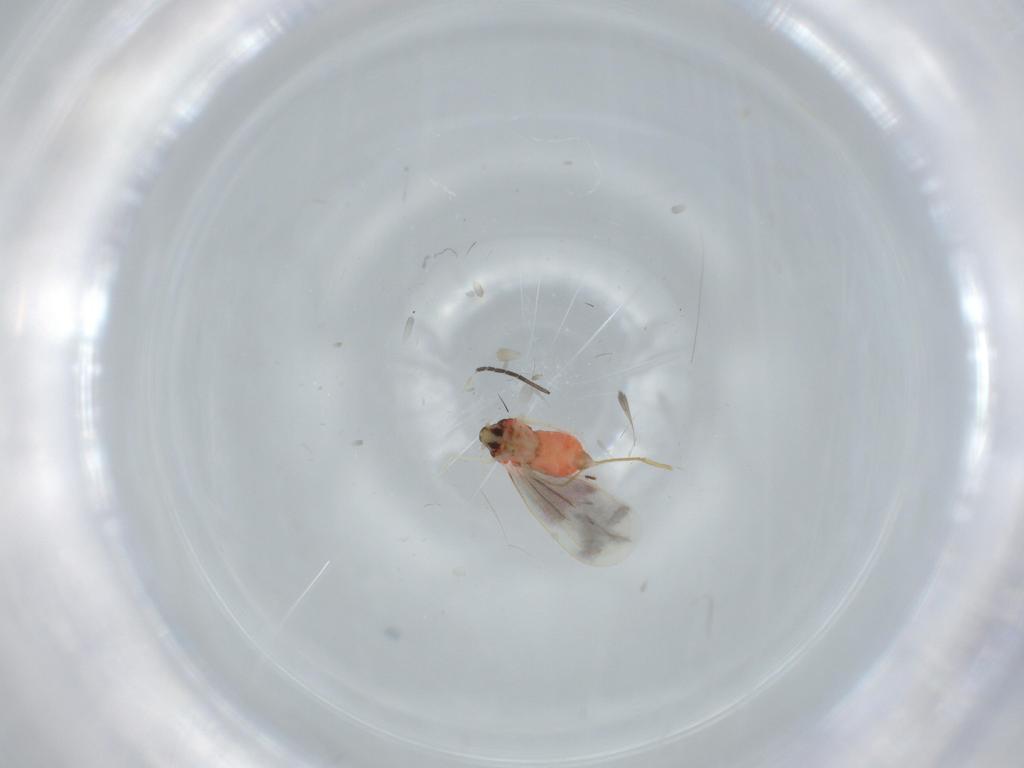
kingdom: Animalia
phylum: Arthropoda
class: Insecta
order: Hemiptera
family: Aleyrodidae
